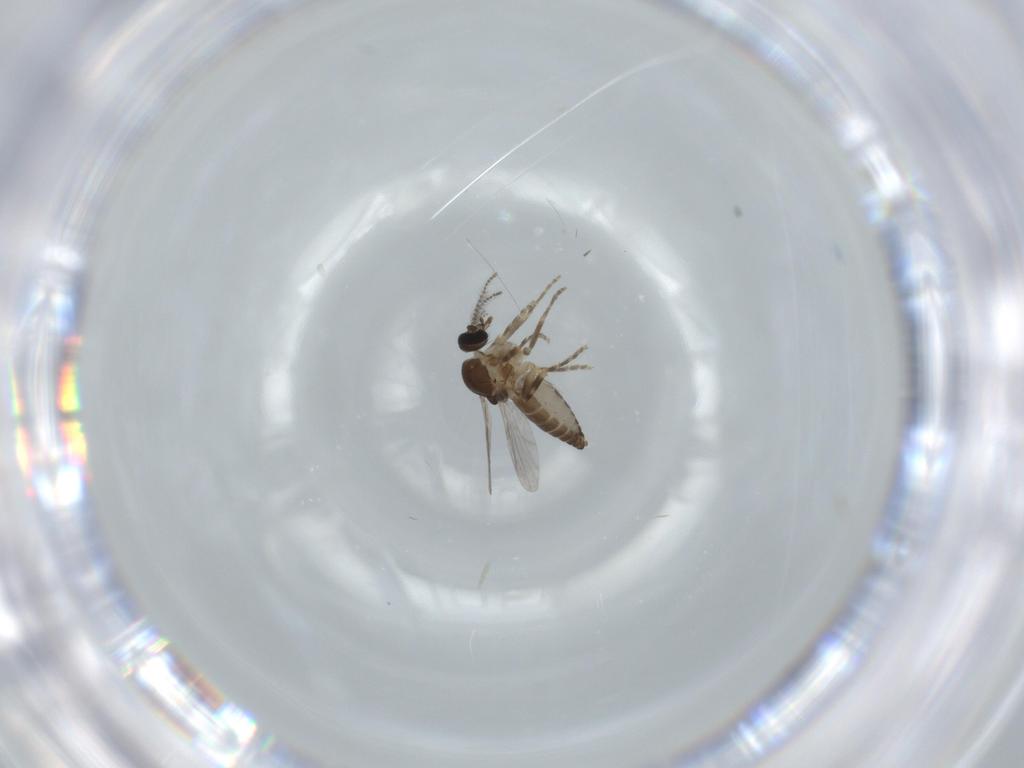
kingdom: Animalia
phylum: Arthropoda
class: Insecta
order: Diptera
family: Ceratopogonidae
